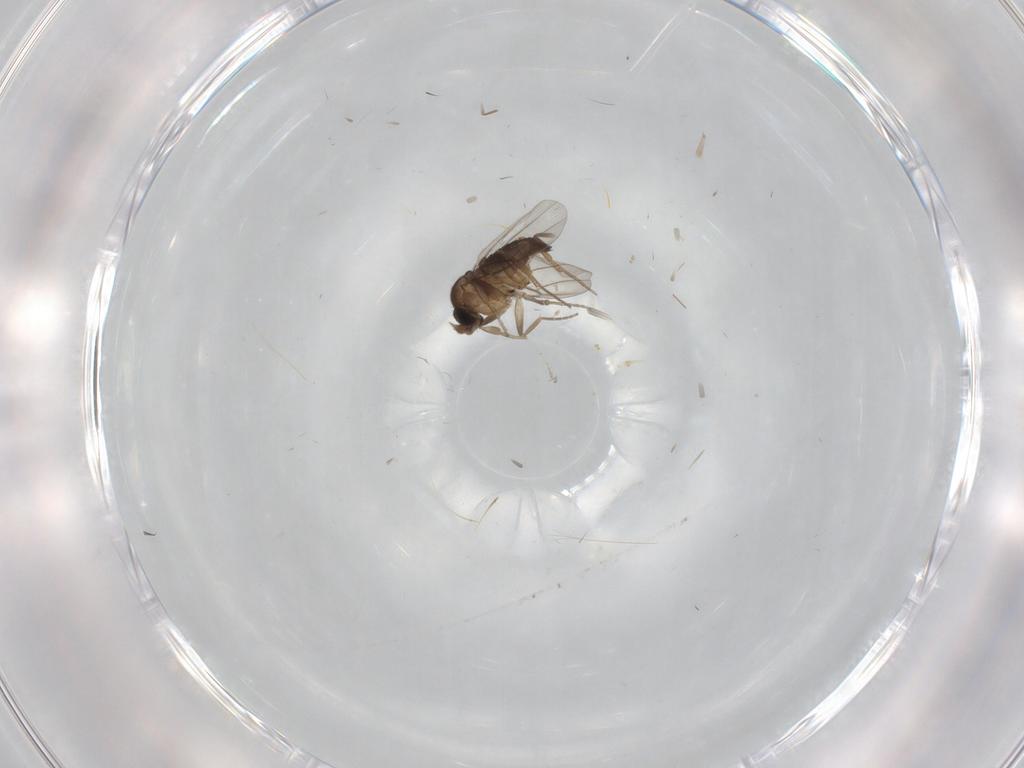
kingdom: Animalia
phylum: Arthropoda
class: Insecta
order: Diptera
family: Phoridae
